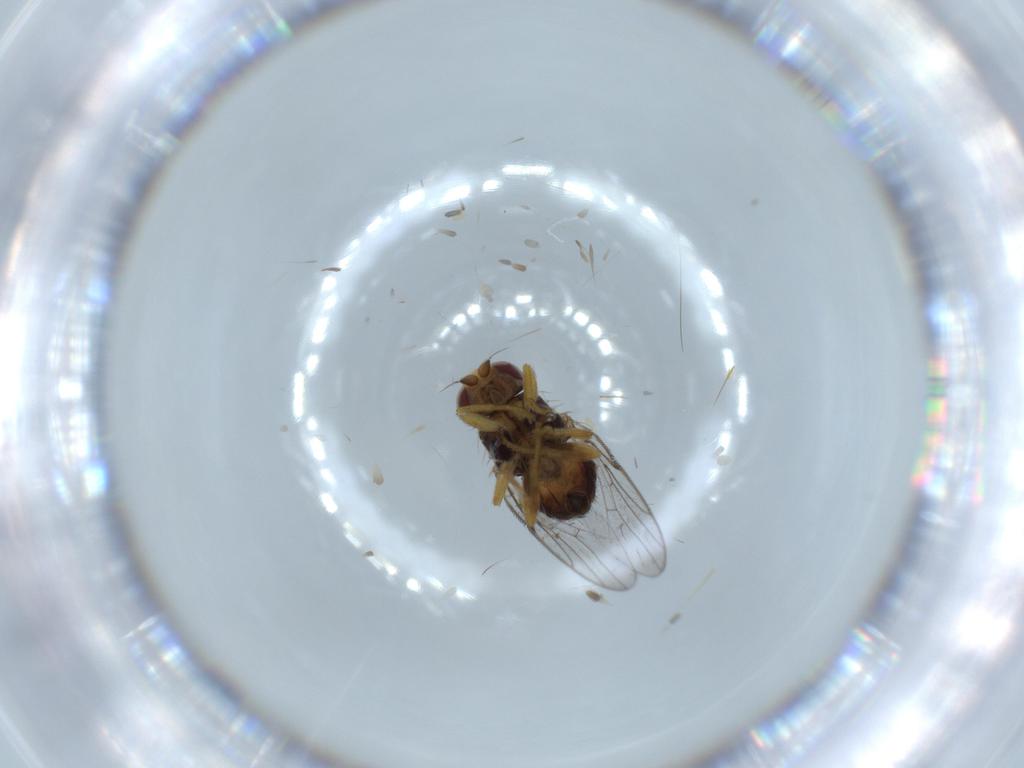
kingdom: Animalia
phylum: Arthropoda
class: Insecta
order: Diptera
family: Chloropidae
